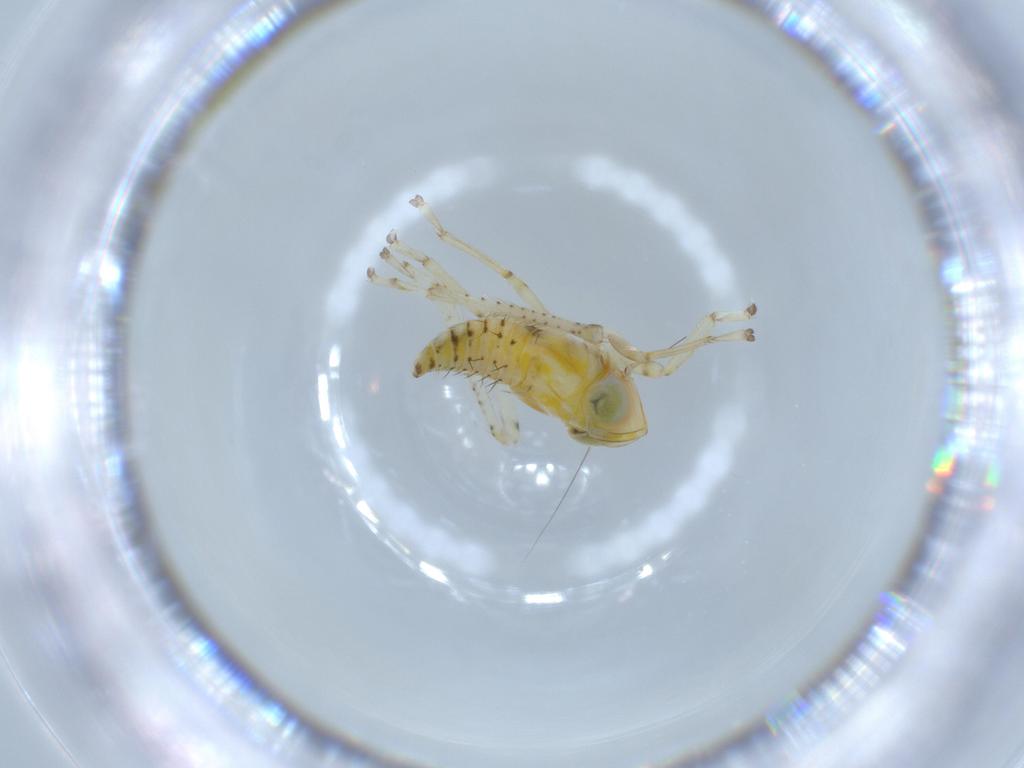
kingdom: Animalia
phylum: Arthropoda
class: Insecta
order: Hemiptera
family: Cicadellidae
